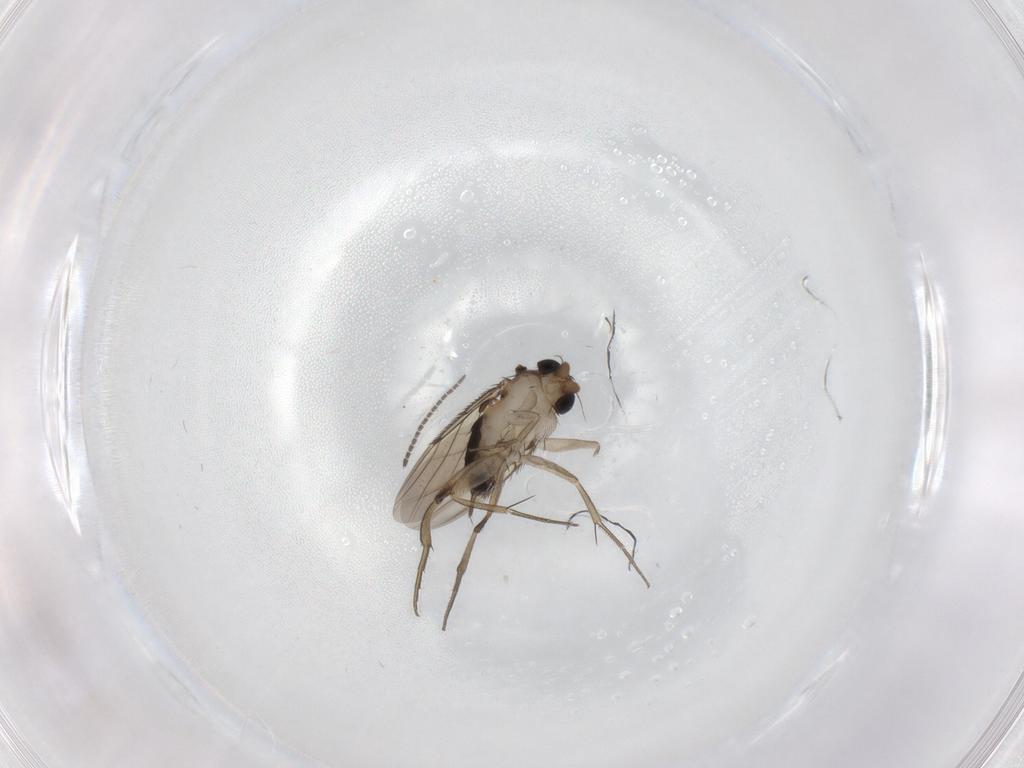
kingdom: Animalia
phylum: Arthropoda
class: Insecta
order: Diptera
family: Phoridae
